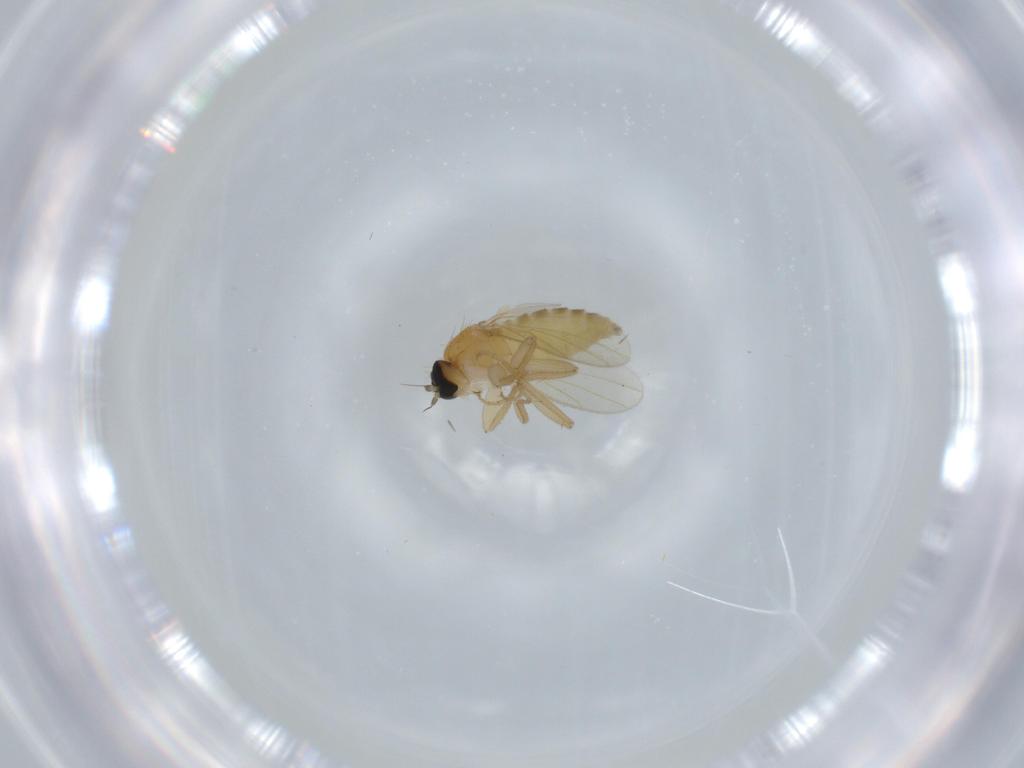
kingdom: Animalia
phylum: Arthropoda
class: Insecta
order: Diptera
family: Hybotidae
